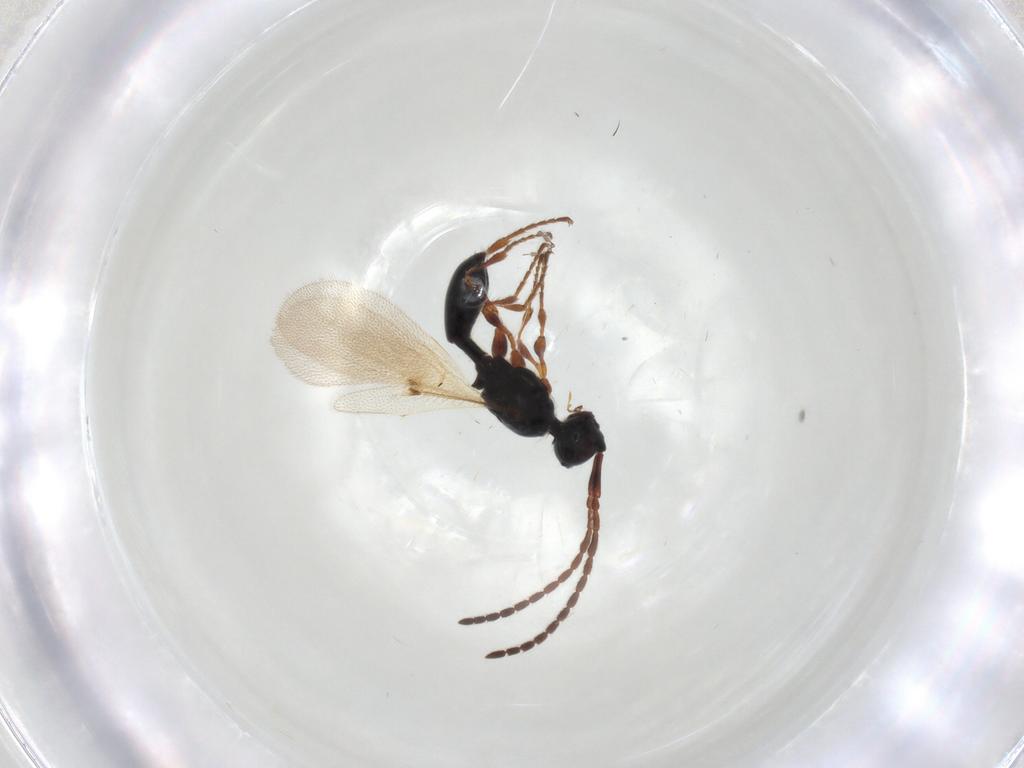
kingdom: Animalia
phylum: Arthropoda
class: Insecta
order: Hymenoptera
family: Diapriidae
